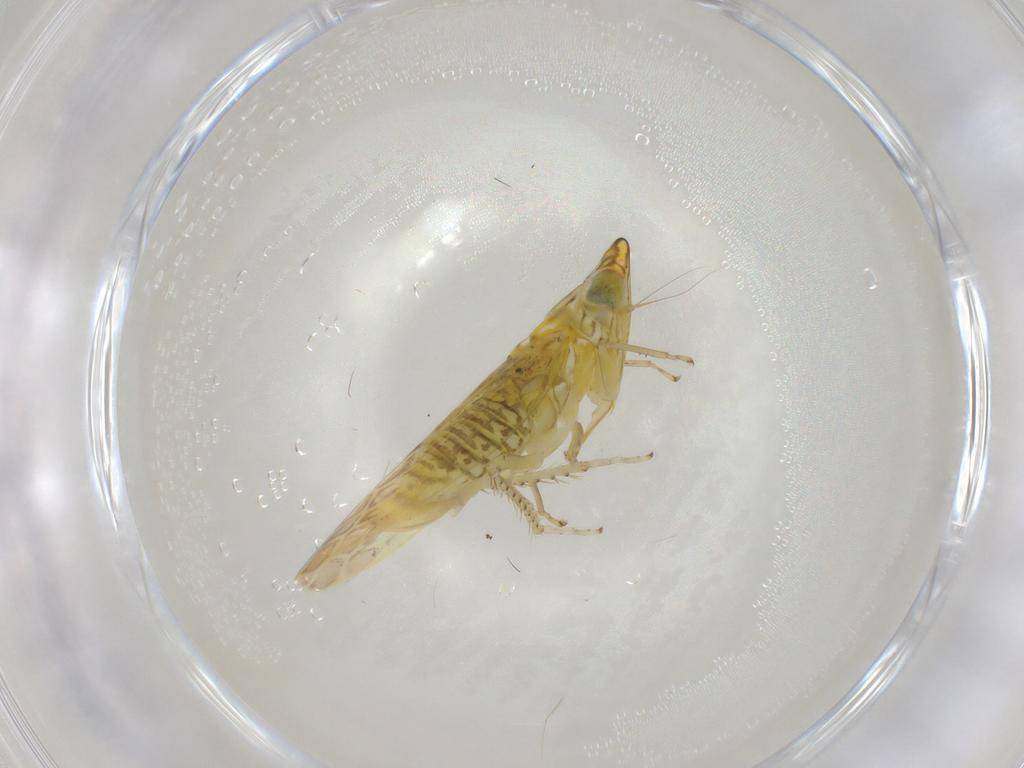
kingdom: Animalia
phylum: Arthropoda
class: Insecta
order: Hemiptera
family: Cicadellidae
